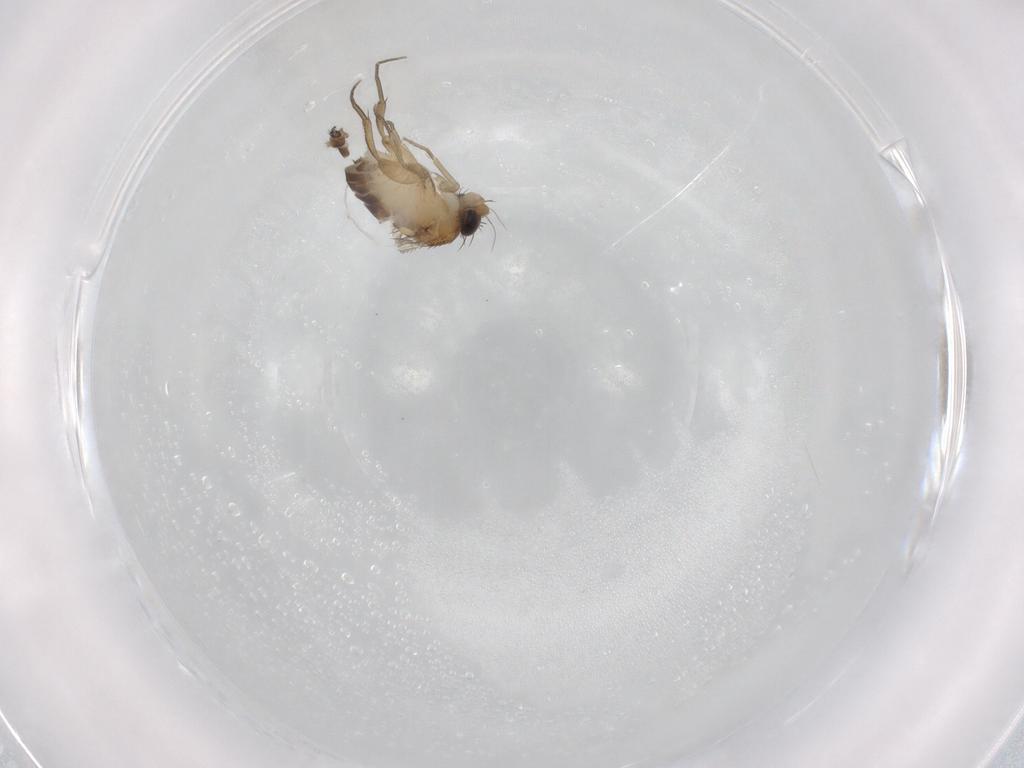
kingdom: Animalia
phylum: Arthropoda
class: Insecta
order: Diptera
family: Phoridae
